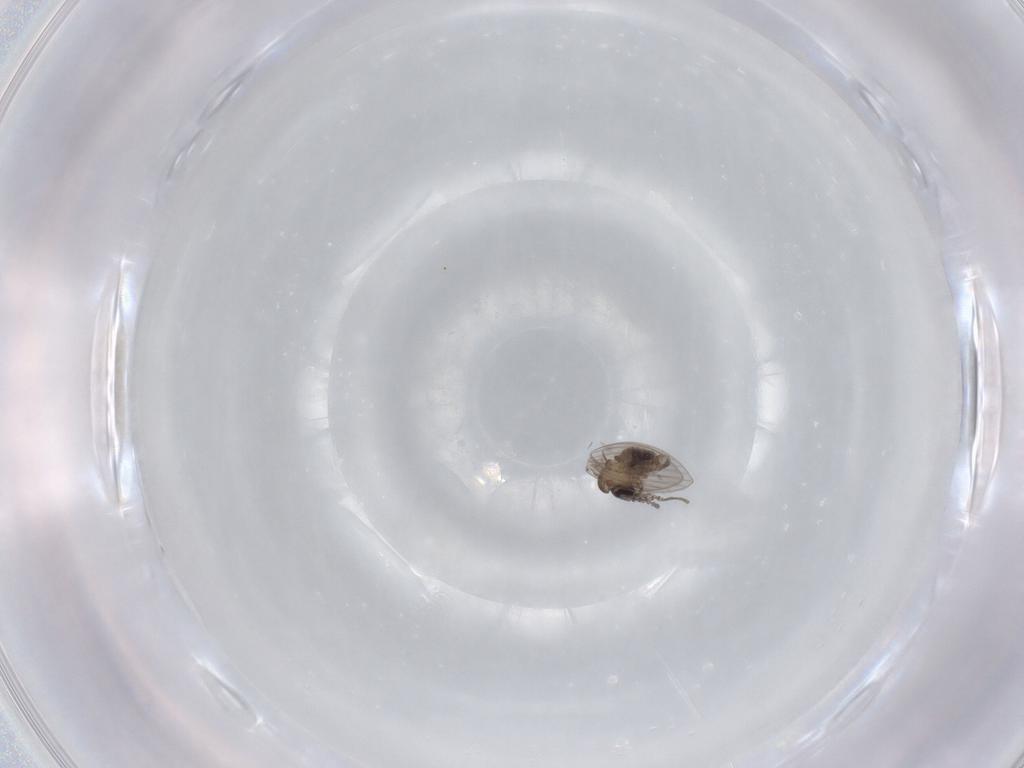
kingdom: Animalia
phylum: Arthropoda
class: Insecta
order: Diptera
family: Psychodidae
